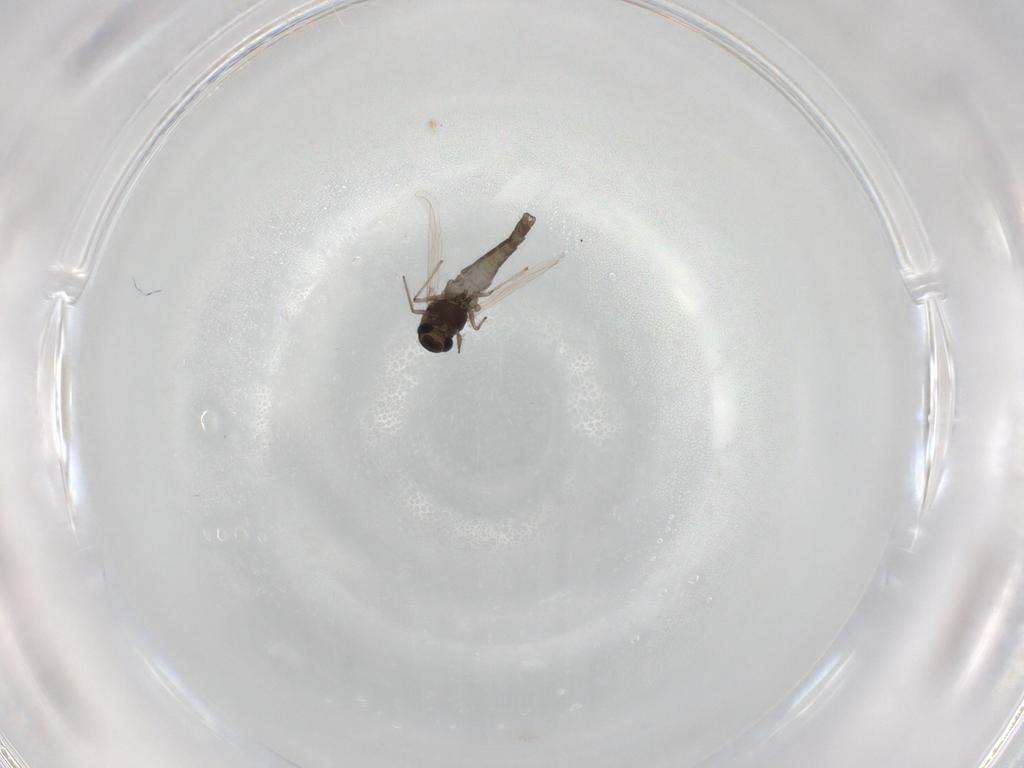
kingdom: Animalia
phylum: Arthropoda
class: Insecta
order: Diptera
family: Chironomidae
